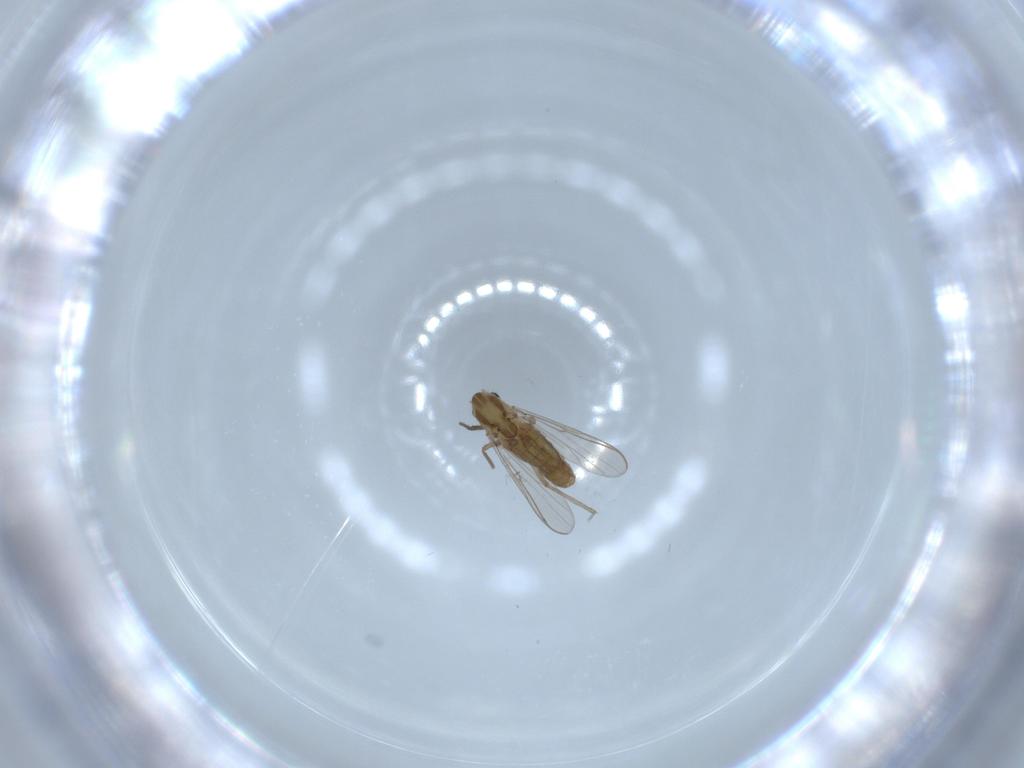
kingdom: Animalia
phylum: Arthropoda
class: Insecta
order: Diptera
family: Chironomidae
